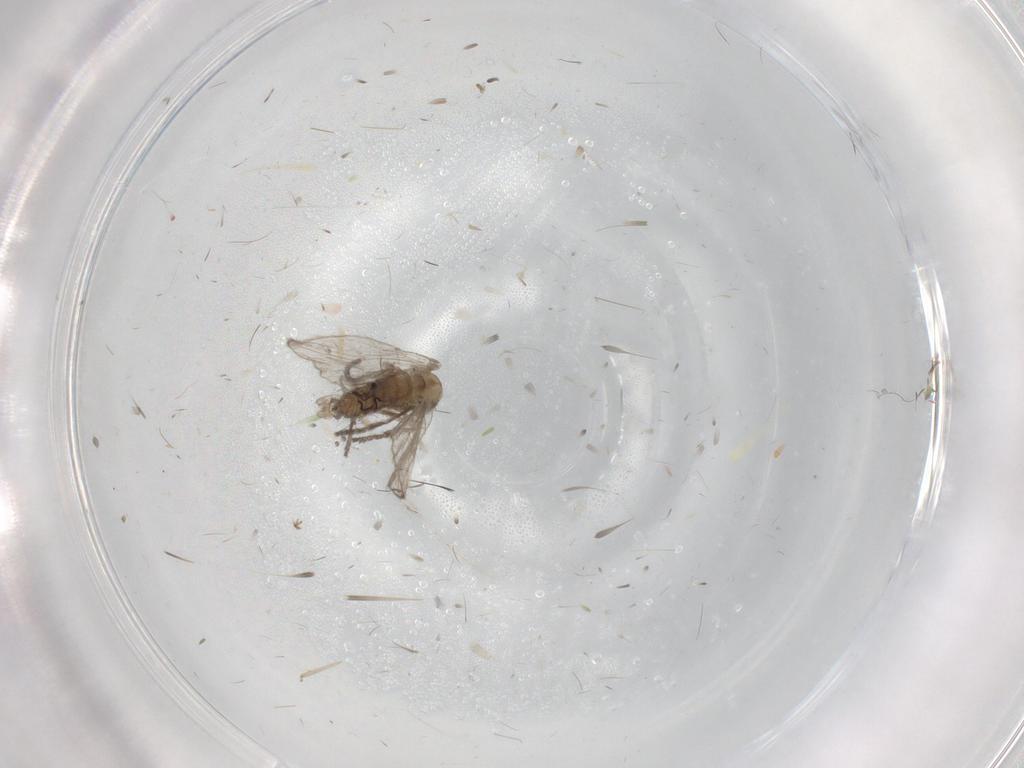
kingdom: Animalia
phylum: Arthropoda
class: Insecta
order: Diptera
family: Psychodidae
